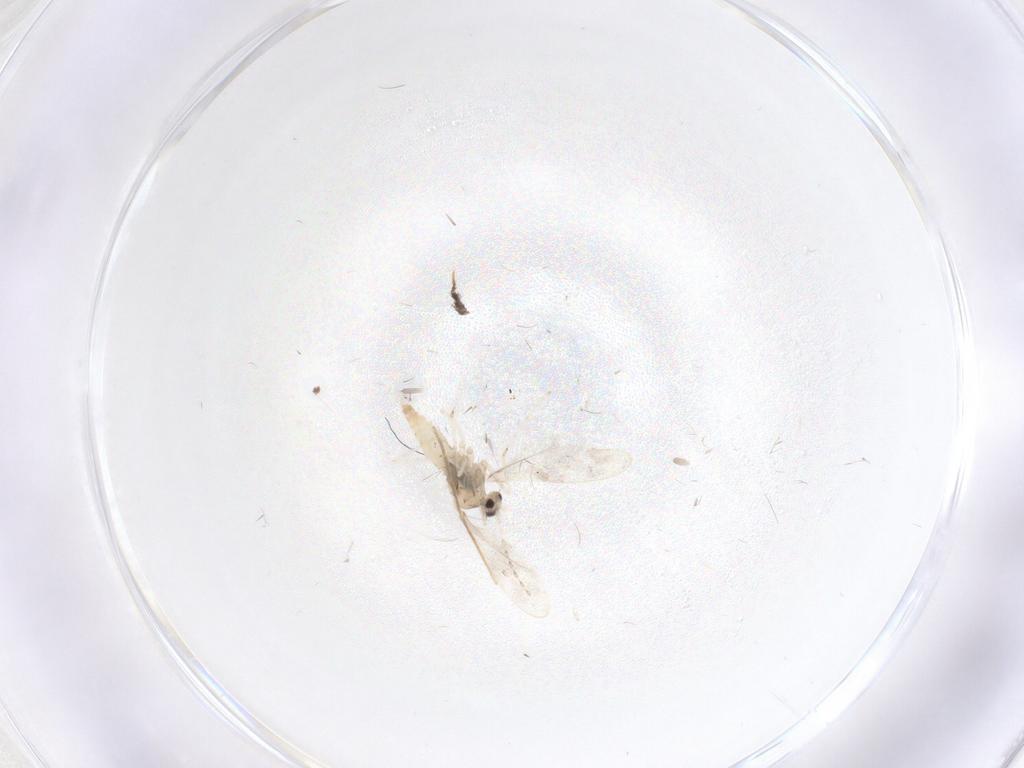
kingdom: Animalia
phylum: Arthropoda
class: Insecta
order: Diptera
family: Cecidomyiidae
